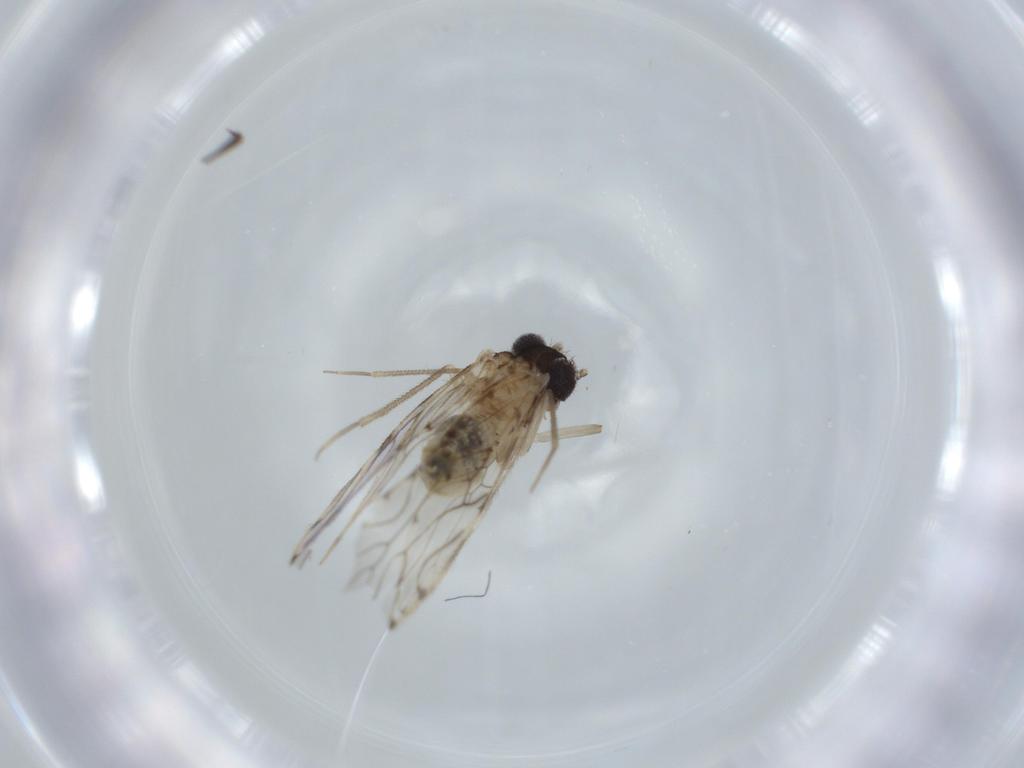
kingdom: Animalia
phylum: Arthropoda
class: Insecta
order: Psocodea
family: Epipsocidae
